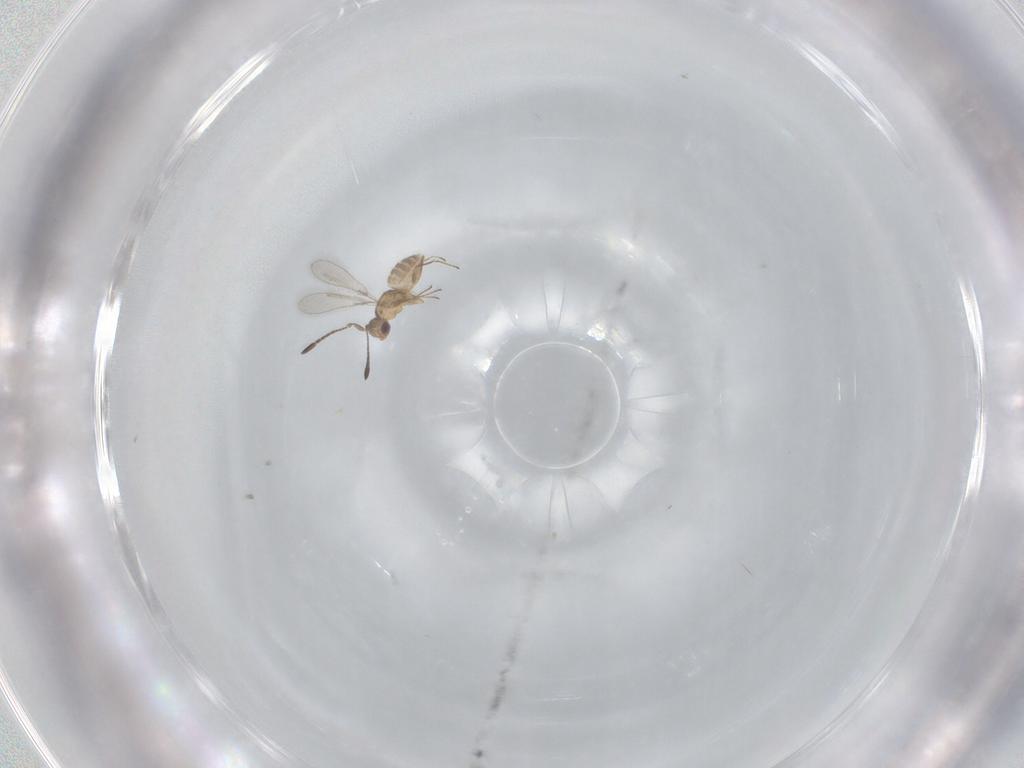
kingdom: Animalia
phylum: Arthropoda
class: Insecta
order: Hymenoptera
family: Mymaridae
